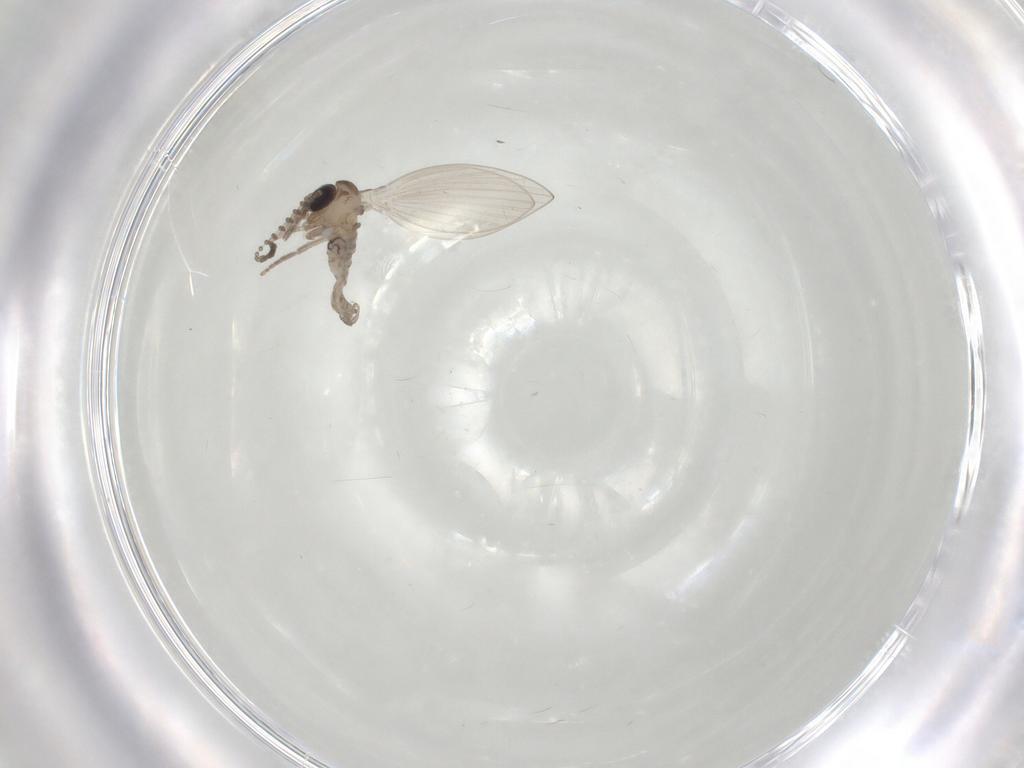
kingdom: Animalia
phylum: Arthropoda
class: Insecta
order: Diptera
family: Psychodidae
